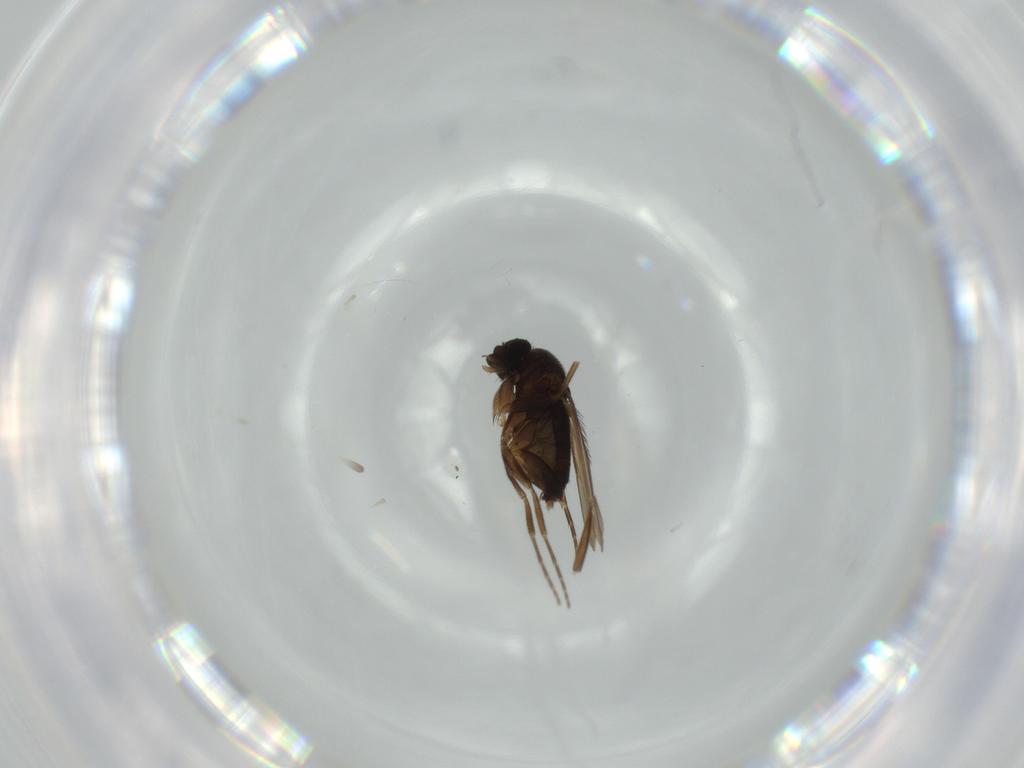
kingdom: Animalia
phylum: Arthropoda
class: Insecta
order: Diptera
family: Phoridae
